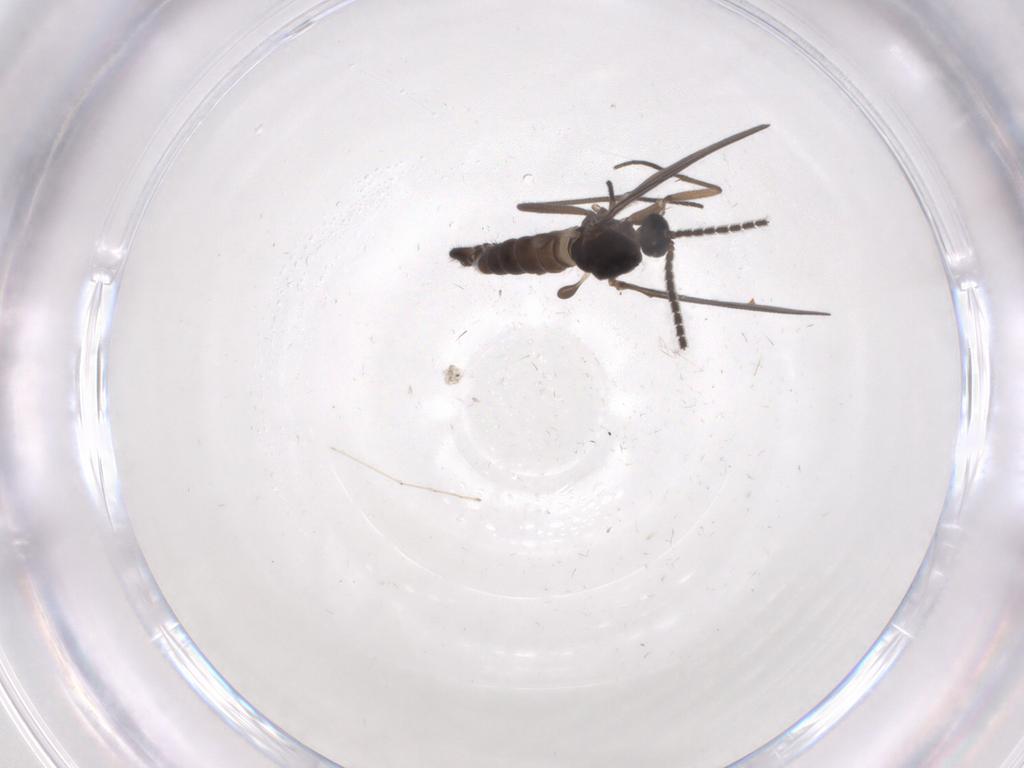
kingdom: Animalia
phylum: Arthropoda
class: Insecta
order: Diptera
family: Sciaridae
